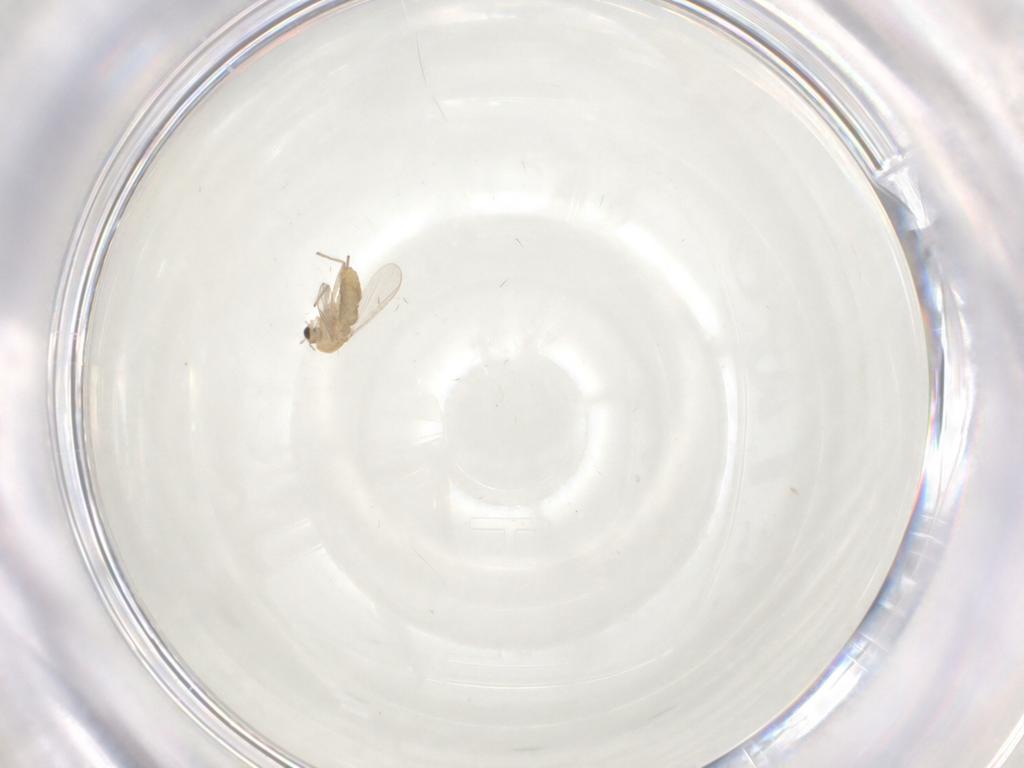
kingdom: Animalia
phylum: Arthropoda
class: Insecta
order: Diptera
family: Chironomidae
